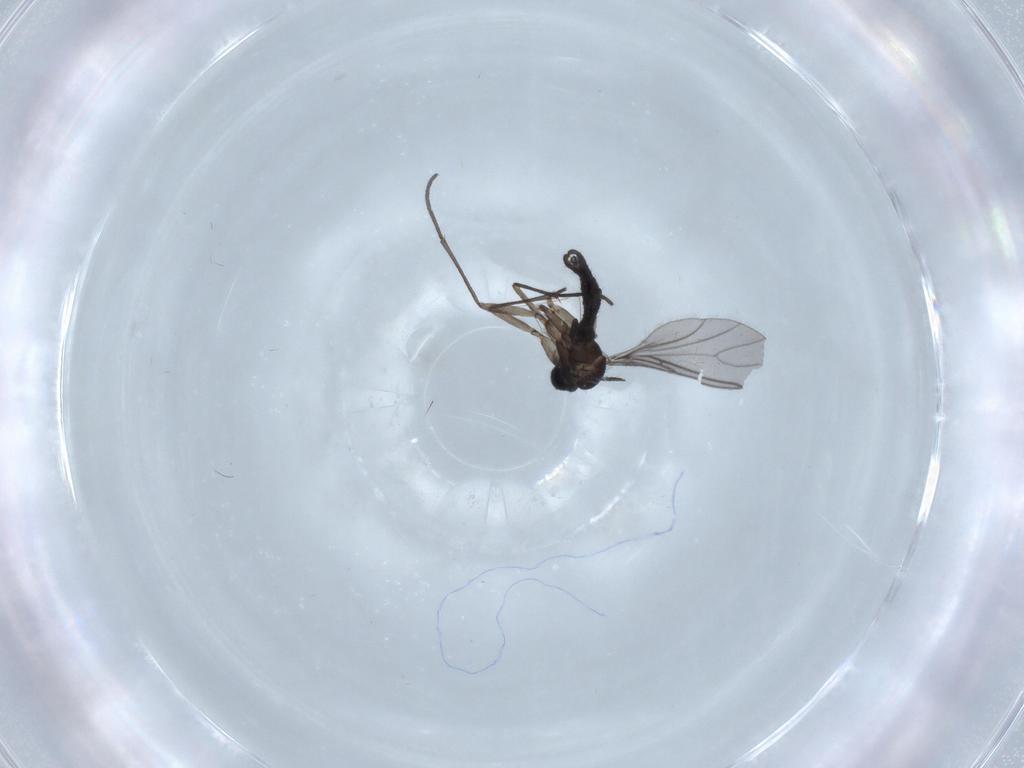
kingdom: Animalia
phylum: Arthropoda
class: Insecta
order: Diptera
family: Sciaridae
